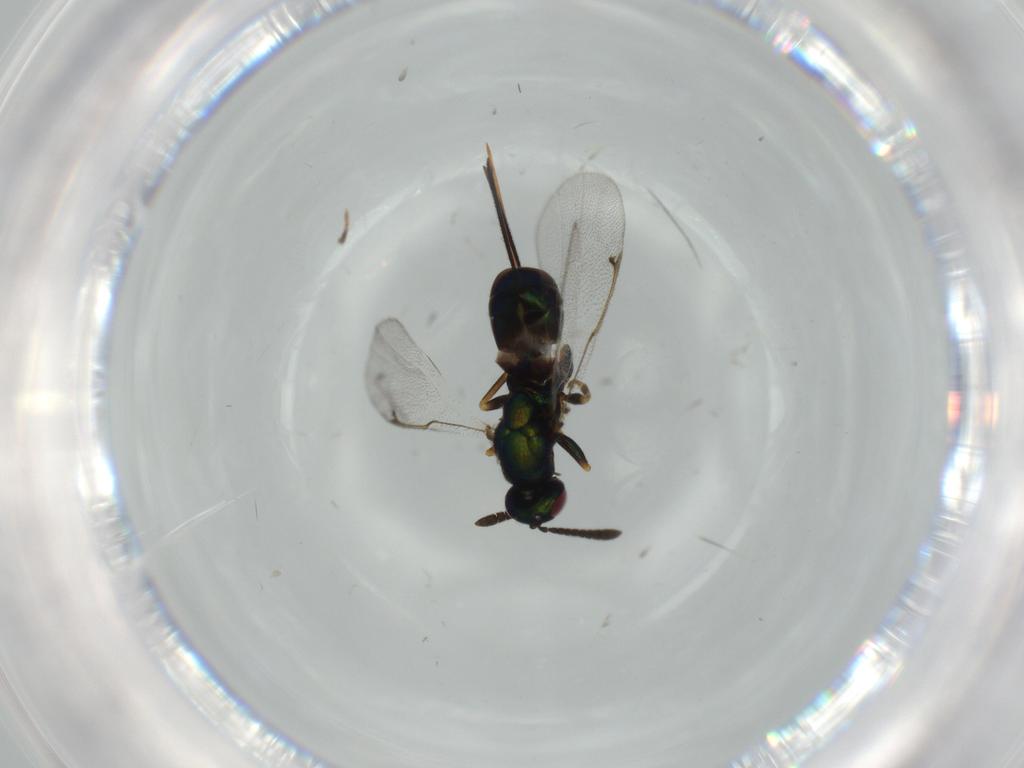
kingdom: Animalia
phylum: Arthropoda
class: Insecta
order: Hymenoptera
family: Torymidae
